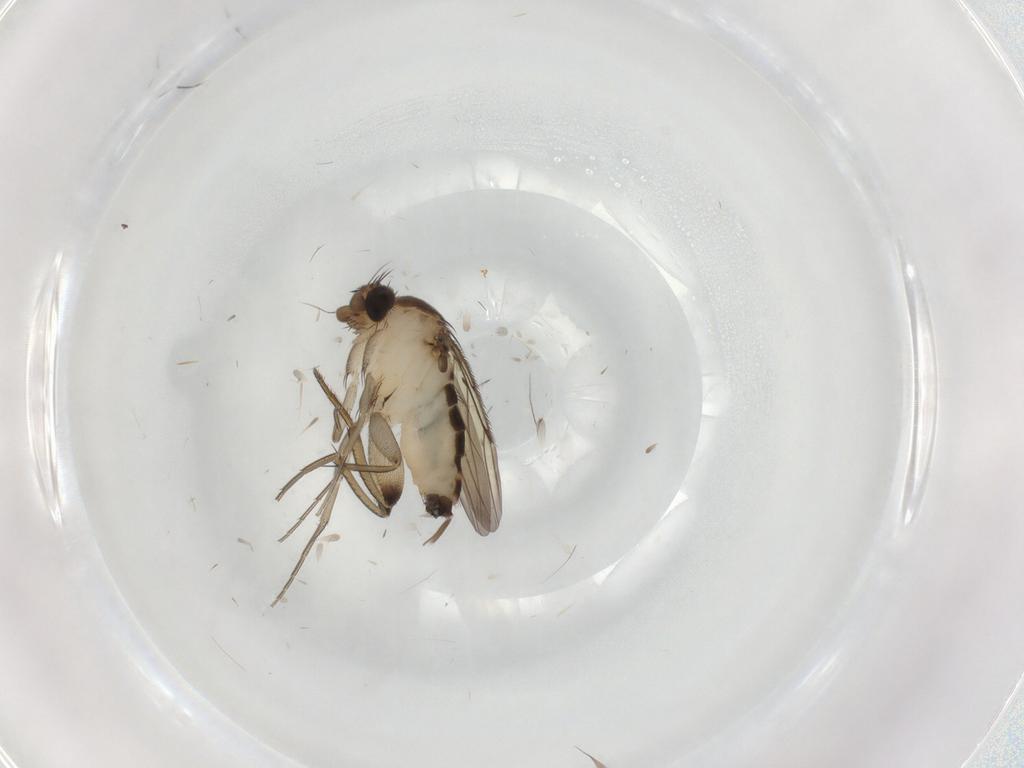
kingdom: Animalia
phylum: Arthropoda
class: Insecta
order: Diptera
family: Phoridae
